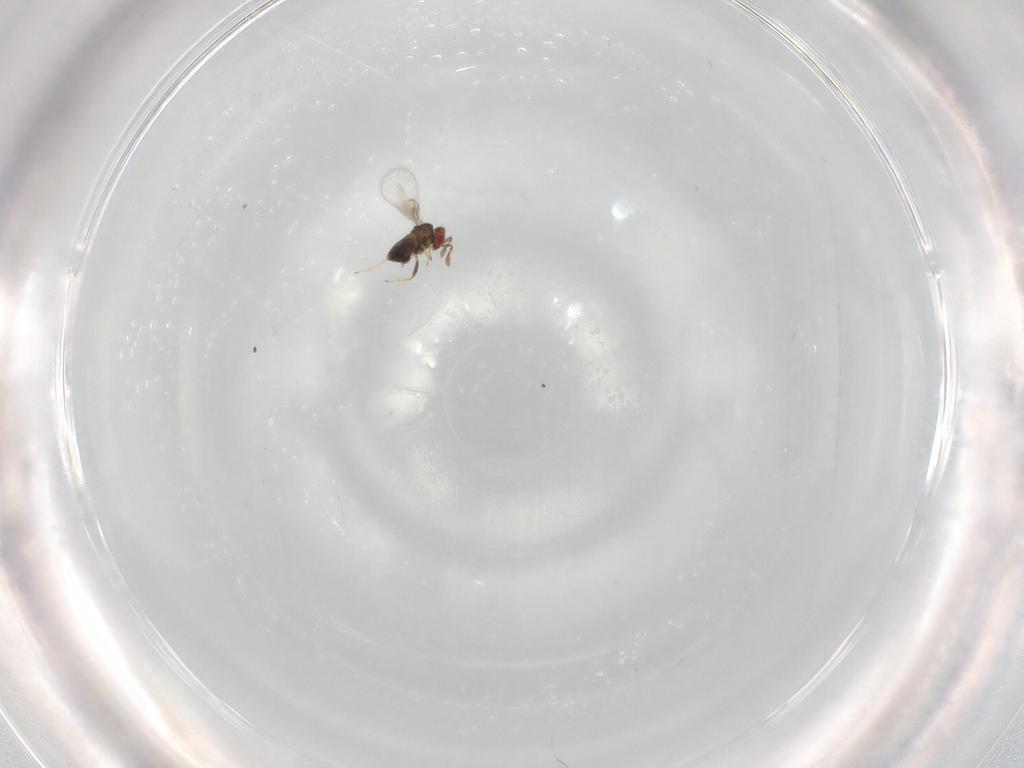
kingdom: Animalia
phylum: Arthropoda
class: Insecta
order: Hymenoptera
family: Trichogrammatidae
